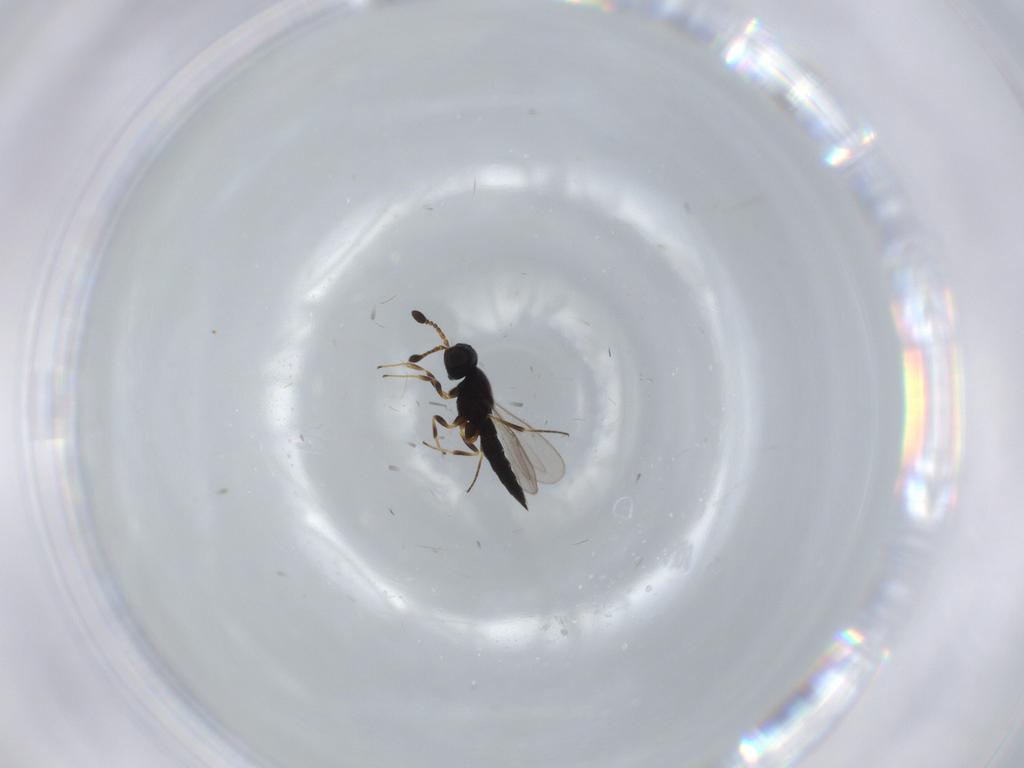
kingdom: Animalia
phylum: Arthropoda
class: Insecta
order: Hymenoptera
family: Scelionidae
